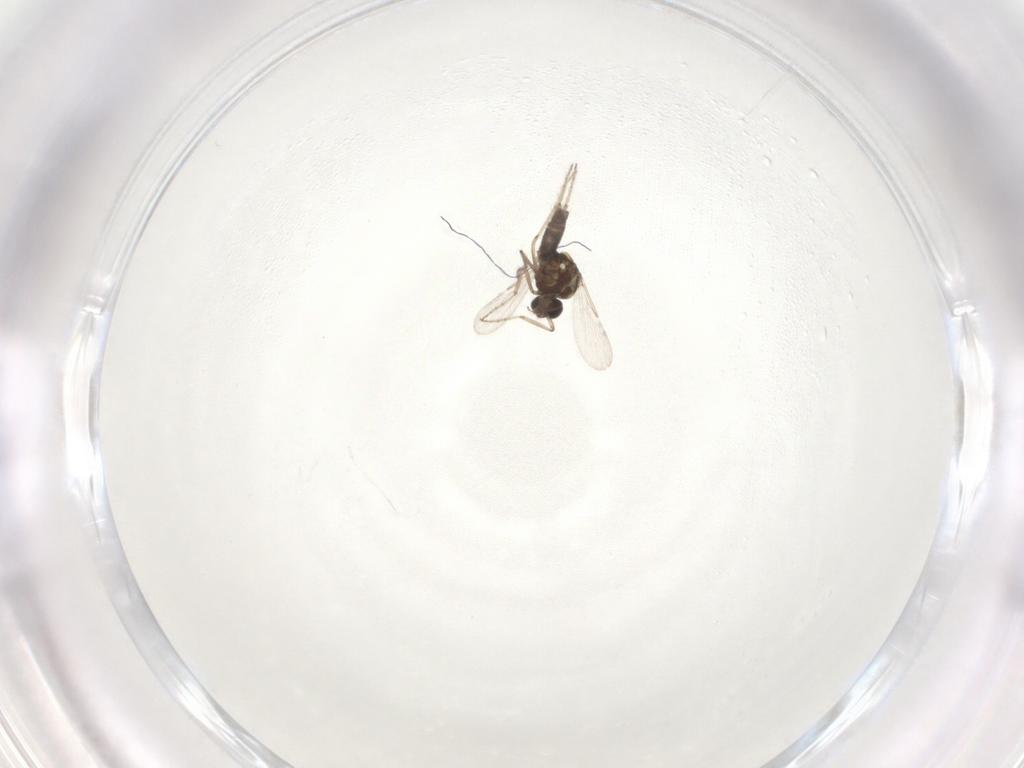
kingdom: Animalia
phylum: Arthropoda
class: Insecta
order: Diptera
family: Ceratopogonidae
